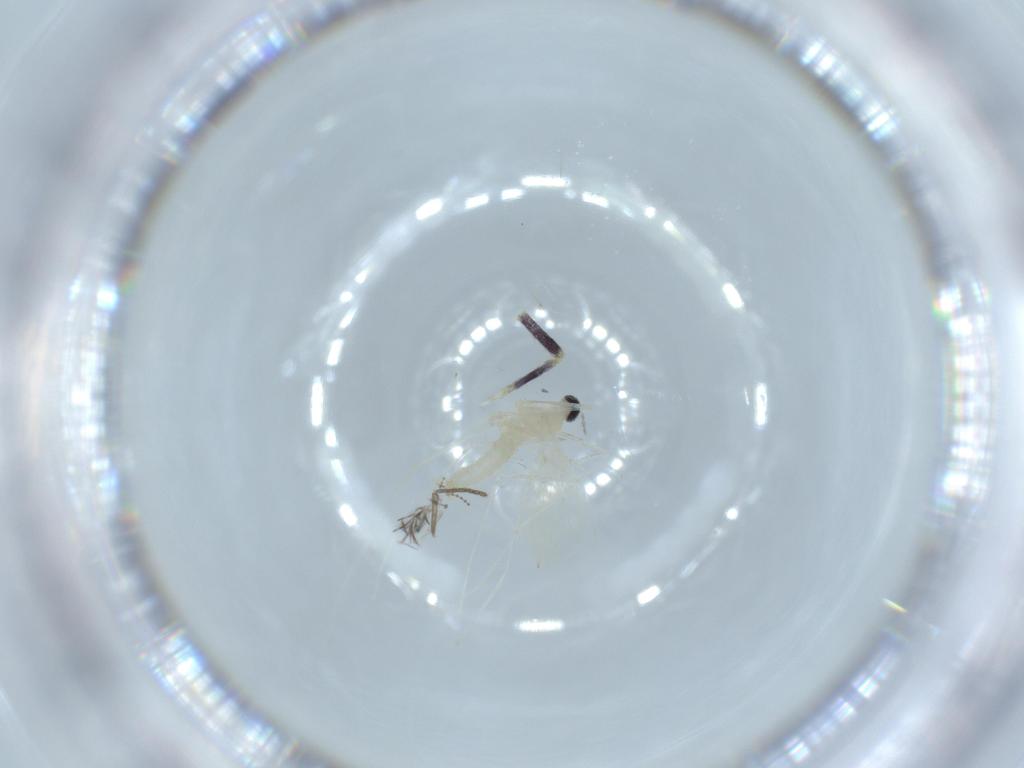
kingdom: Animalia
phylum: Arthropoda
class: Insecta
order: Diptera
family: Cecidomyiidae
